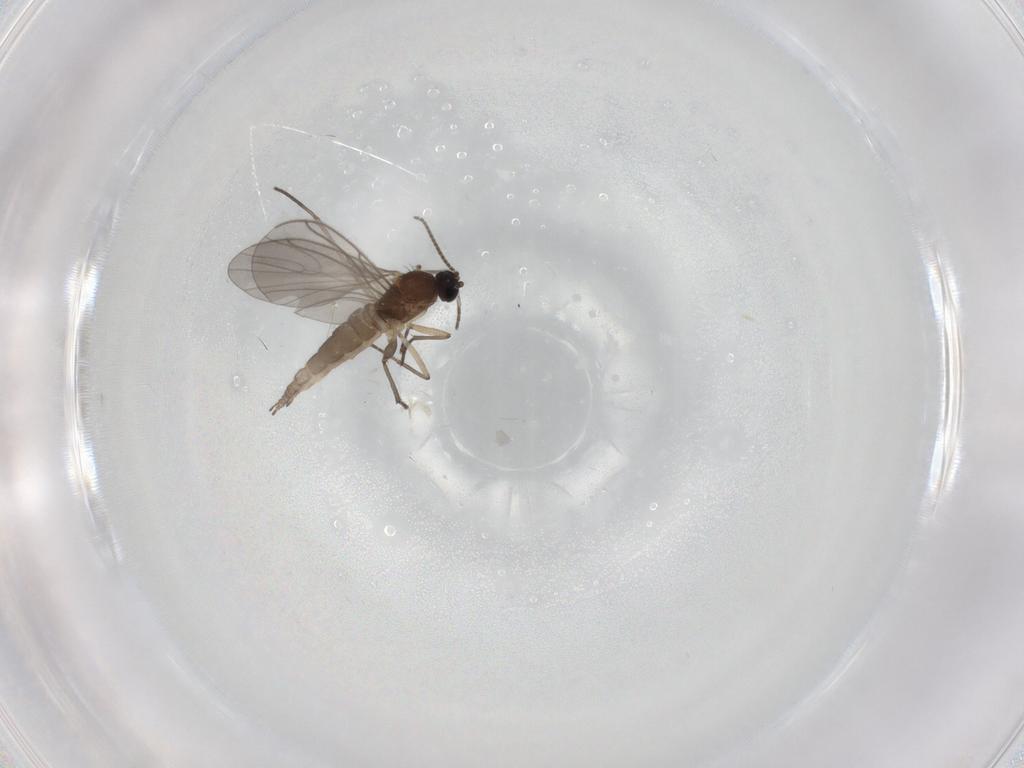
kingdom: Animalia
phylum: Arthropoda
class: Insecta
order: Diptera
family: Sciaridae
